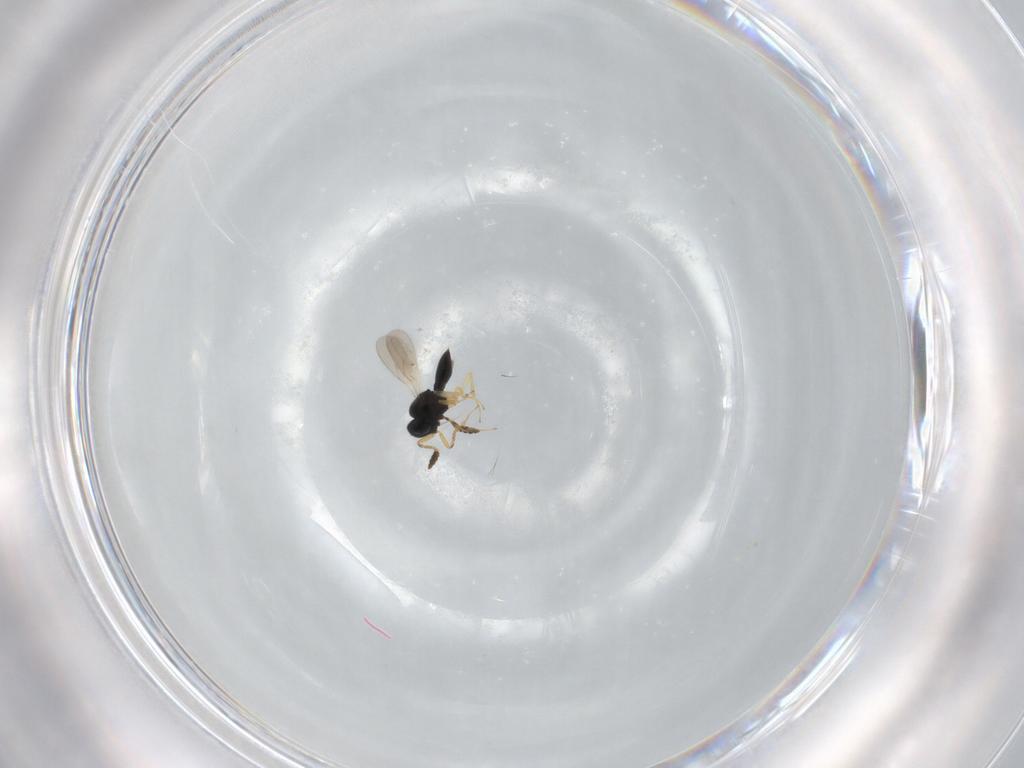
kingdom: Animalia
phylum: Arthropoda
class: Insecta
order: Hymenoptera
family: Scelionidae
